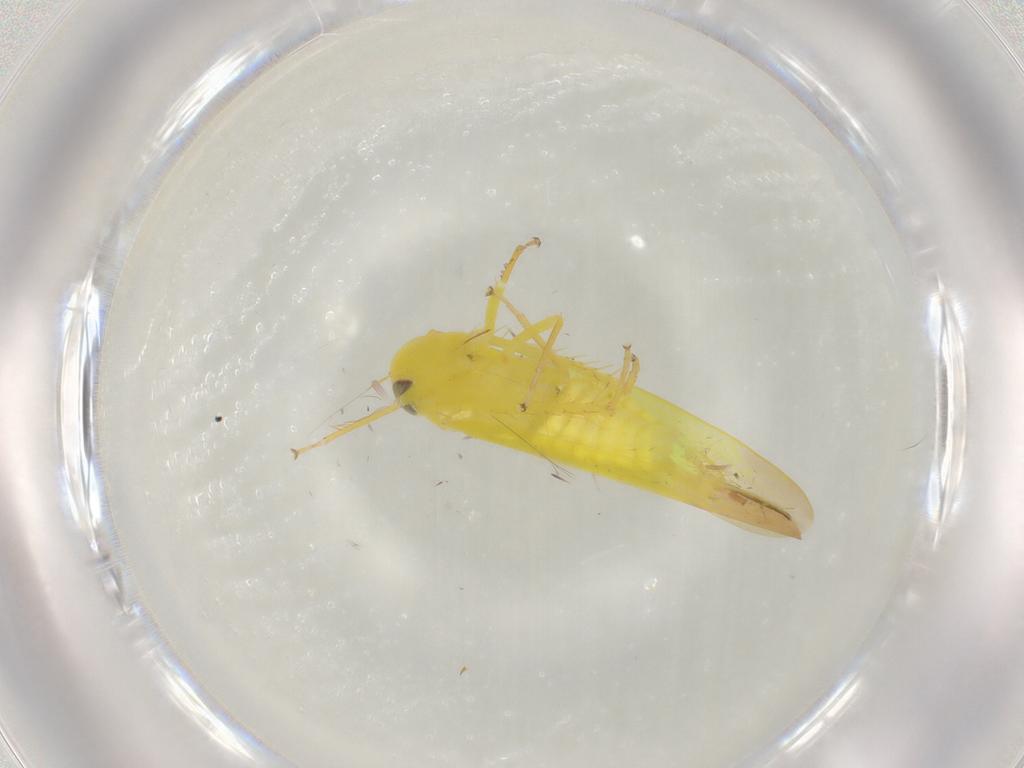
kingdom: Animalia
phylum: Arthropoda
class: Insecta
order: Hemiptera
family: Cicadellidae
